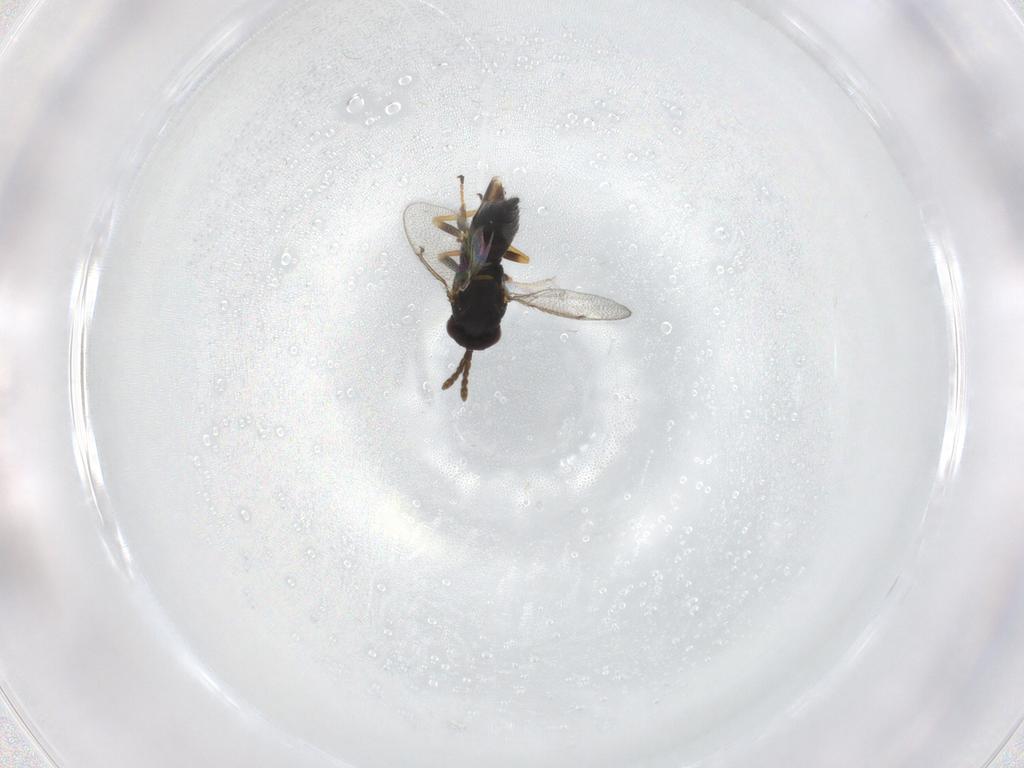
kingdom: Animalia
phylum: Arthropoda
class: Insecta
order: Hymenoptera
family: Eulophidae
